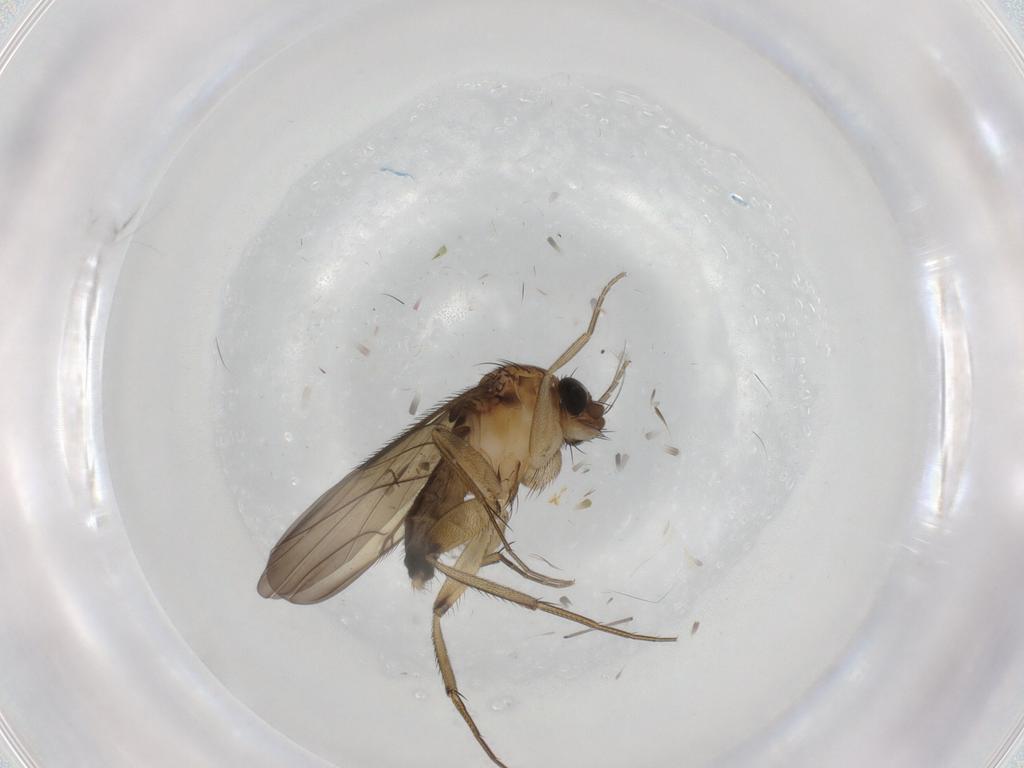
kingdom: Animalia
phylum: Arthropoda
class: Insecta
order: Diptera
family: Phoridae
